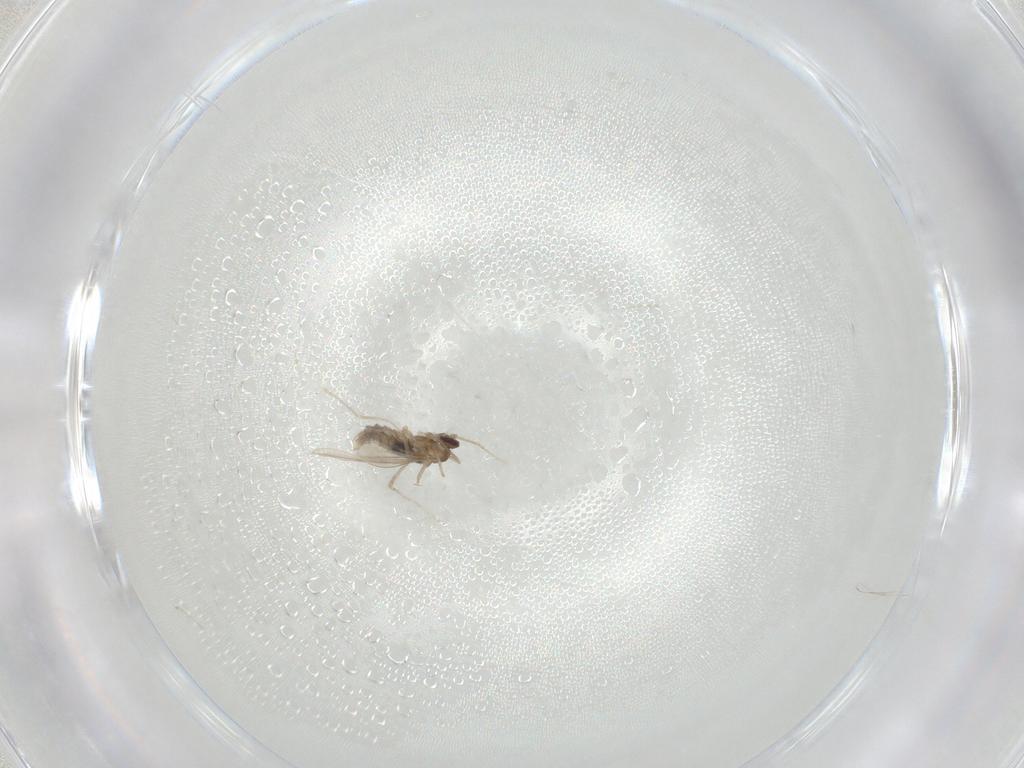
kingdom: Animalia
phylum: Arthropoda
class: Insecta
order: Diptera
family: Cecidomyiidae
